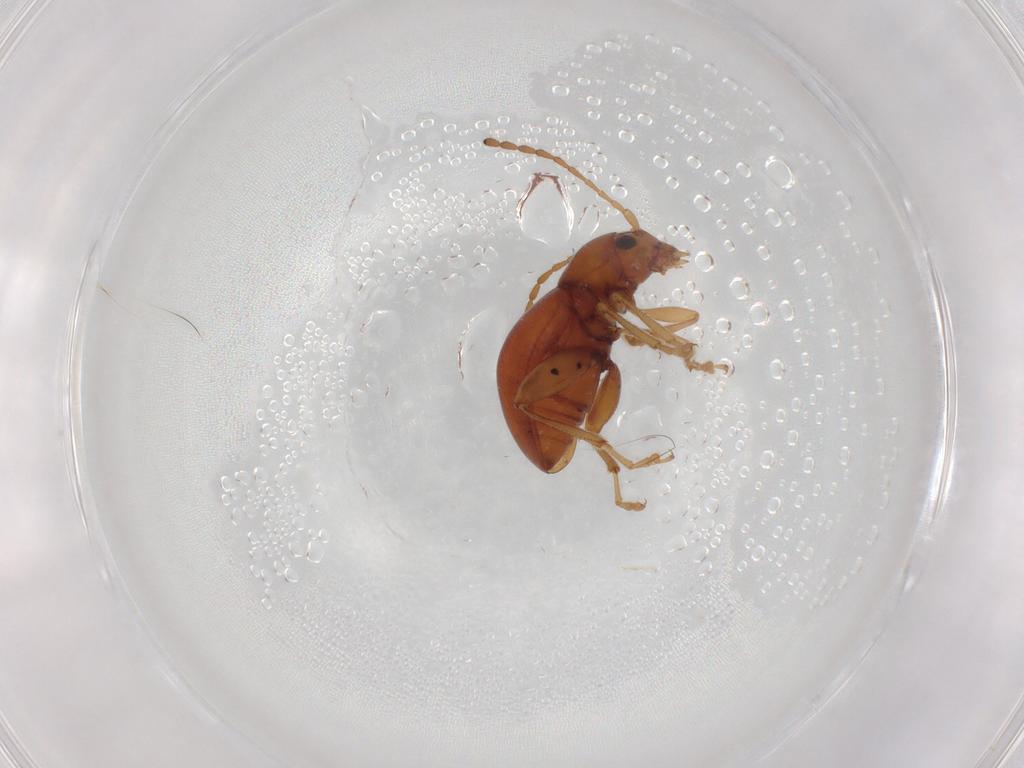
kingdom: Animalia
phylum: Arthropoda
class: Insecta
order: Coleoptera
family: Chrysomelidae
